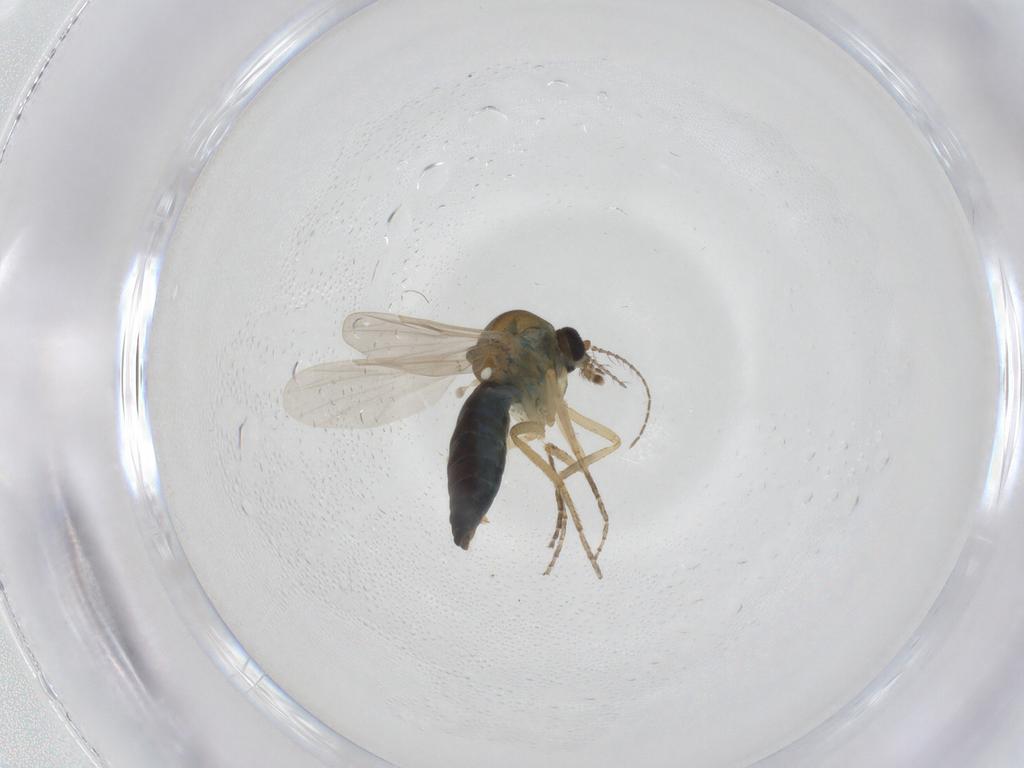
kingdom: Animalia
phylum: Arthropoda
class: Insecta
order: Diptera
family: Ceratopogonidae
